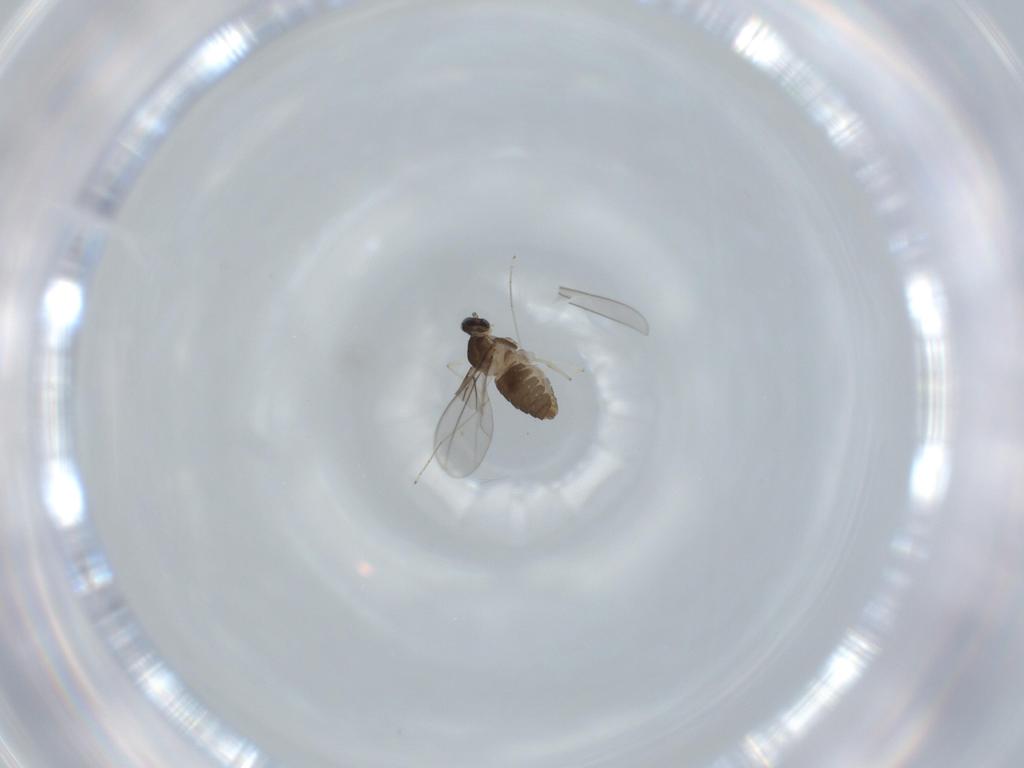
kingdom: Animalia
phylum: Arthropoda
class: Insecta
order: Diptera
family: Cecidomyiidae
